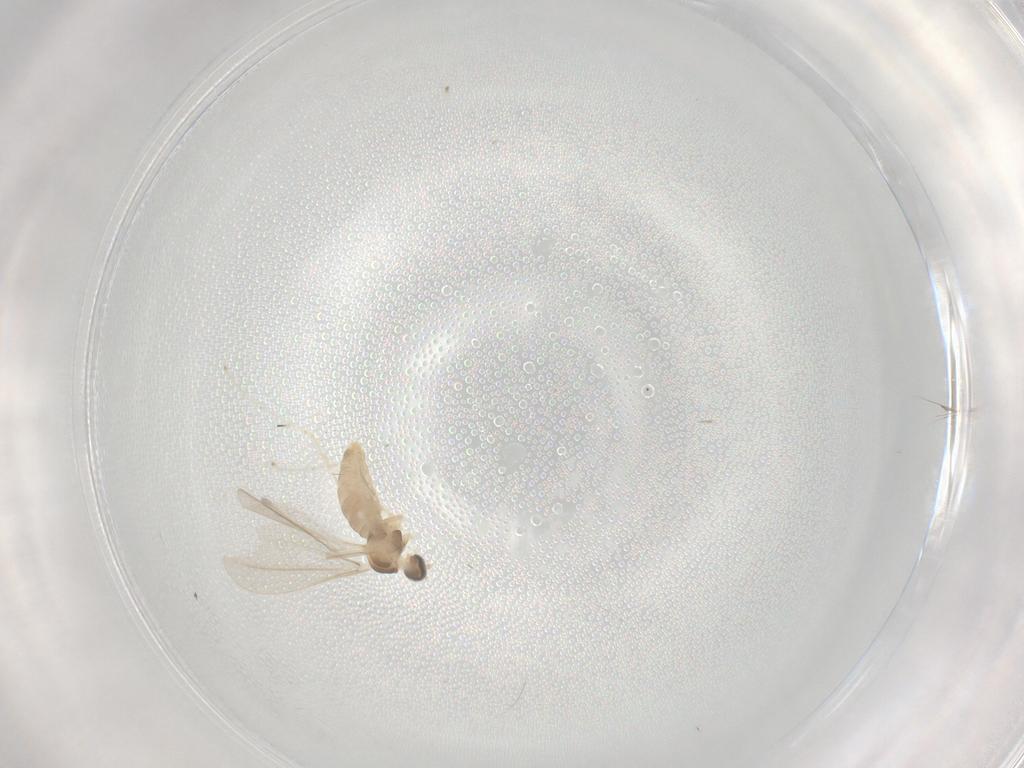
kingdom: Animalia
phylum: Arthropoda
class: Insecta
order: Diptera
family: Cecidomyiidae
